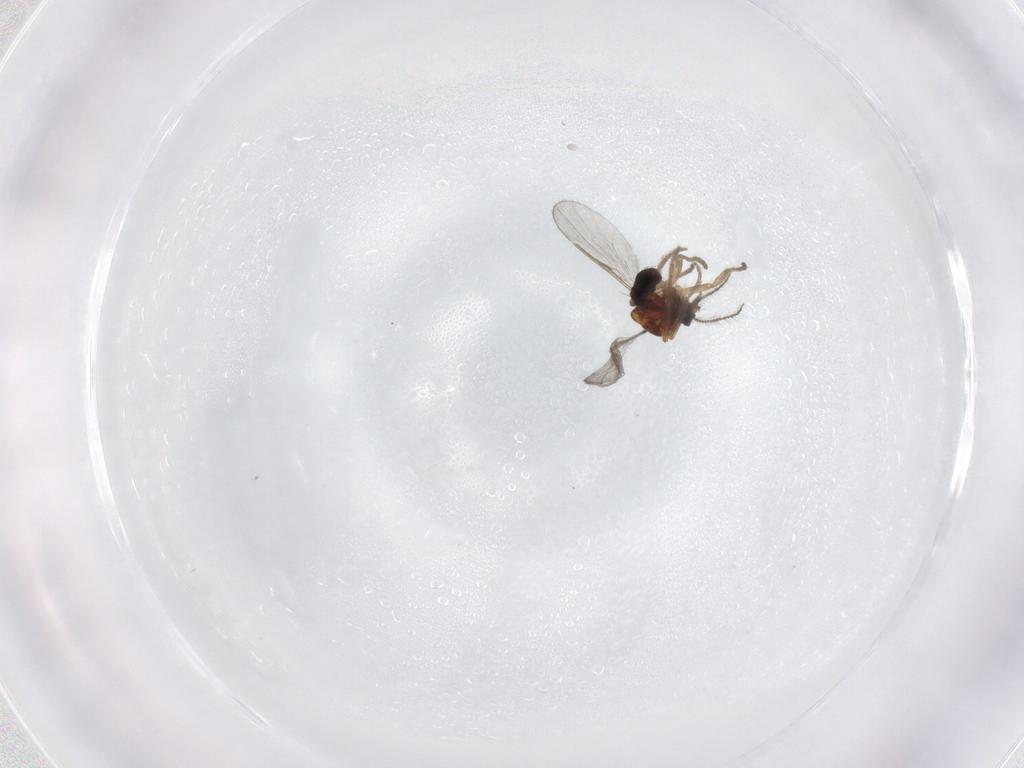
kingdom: Animalia
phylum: Arthropoda
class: Insecta
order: Diptera
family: Ceratopogonidae
